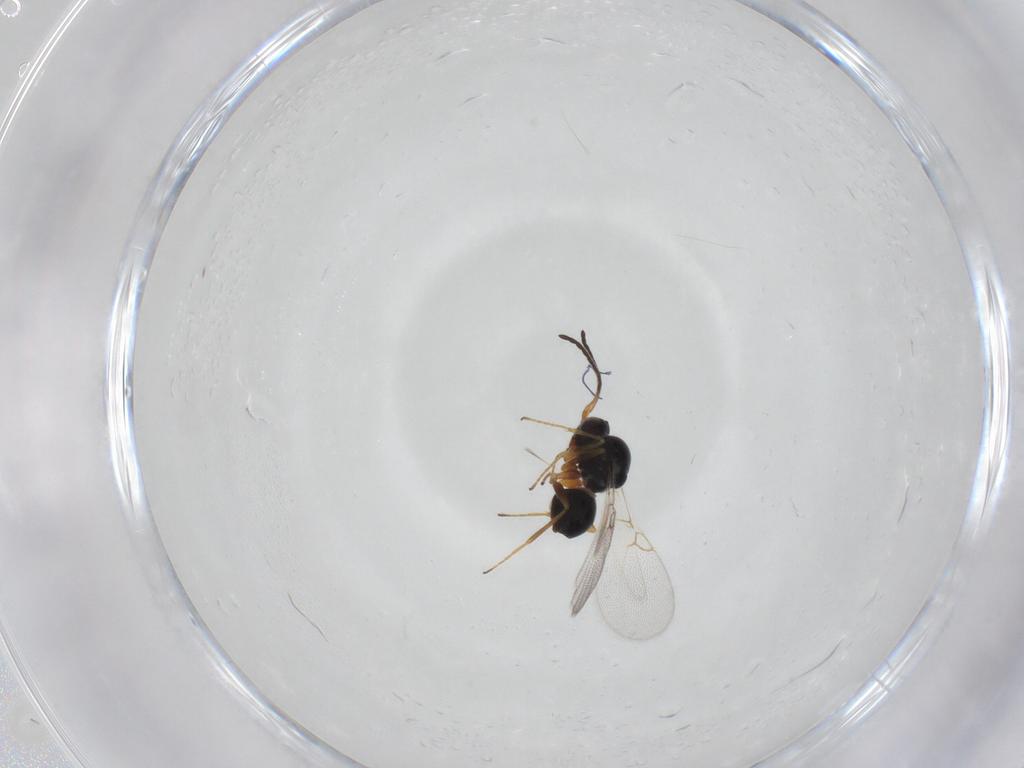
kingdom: Animalia
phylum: Arthropoda
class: Insecta
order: Hymenoptera
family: Figitidae
